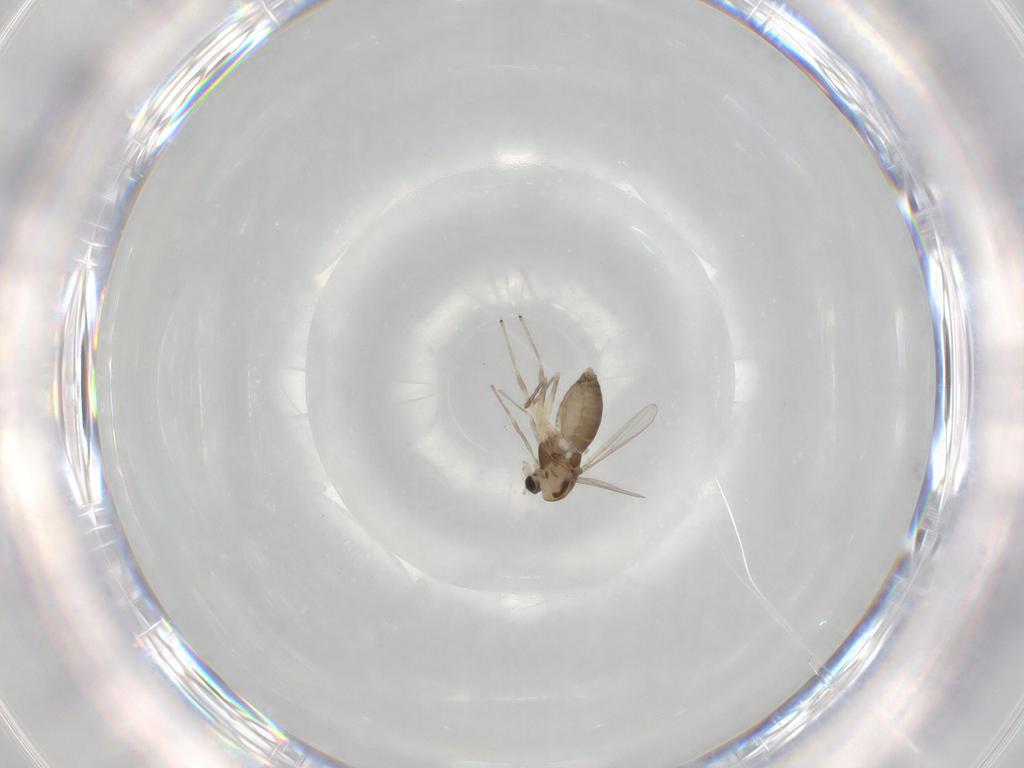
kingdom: Animalia
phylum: Arthropoda
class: Insecta
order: Diptera
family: Chironomidae
